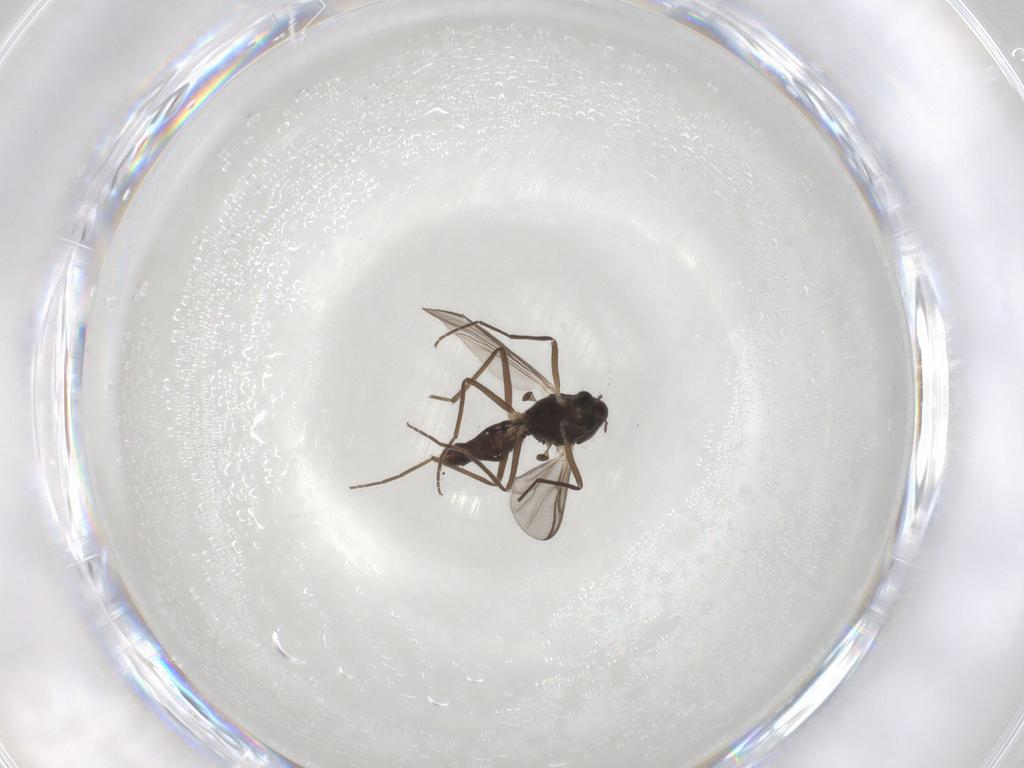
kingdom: Animalia
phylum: Arthropoda
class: Insecta
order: Diptera
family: Chironomidae
